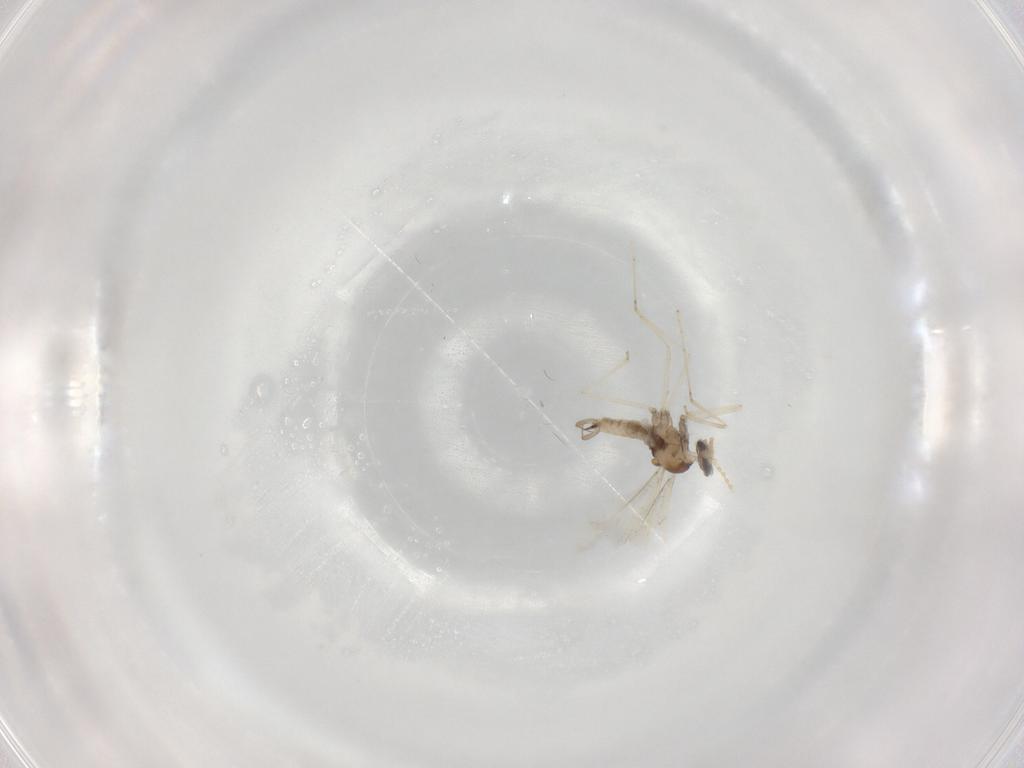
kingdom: Animalia
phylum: Arthropoda
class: Insecta
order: Diptera
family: Cecidomyiidae
